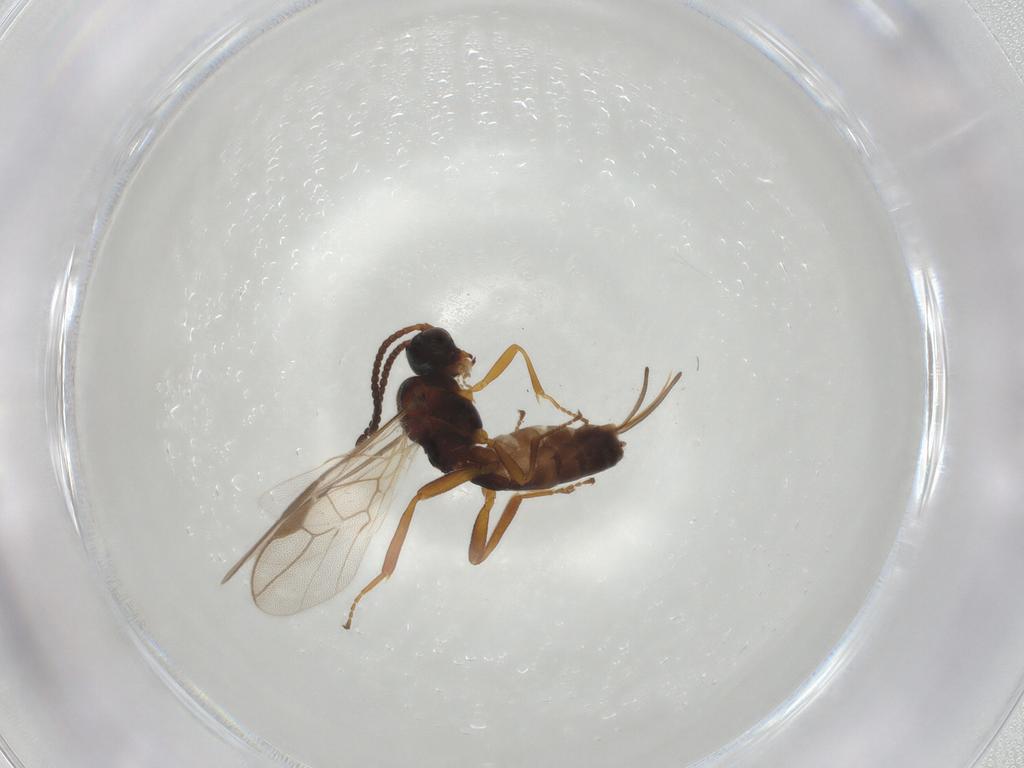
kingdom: Animalia
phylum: Arthropoda
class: Insecta
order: Hymenoptera
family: Braconidae
